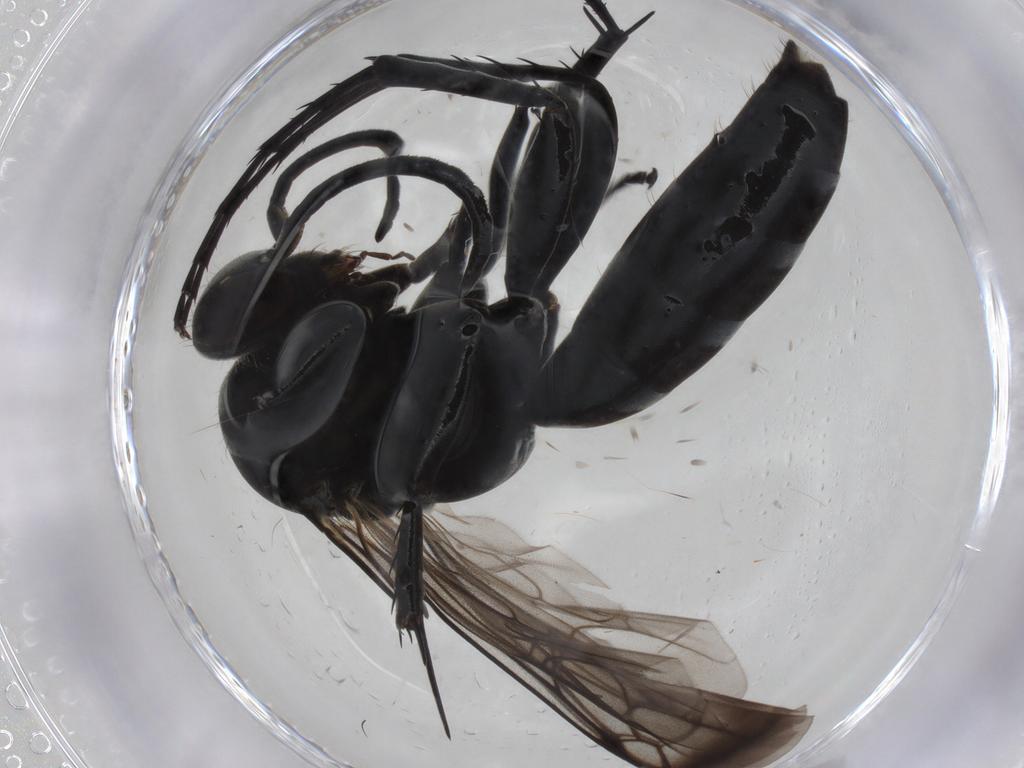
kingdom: Animalia
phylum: Arthropoda
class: Insecta
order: Hymenoptera
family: Pompilidae
